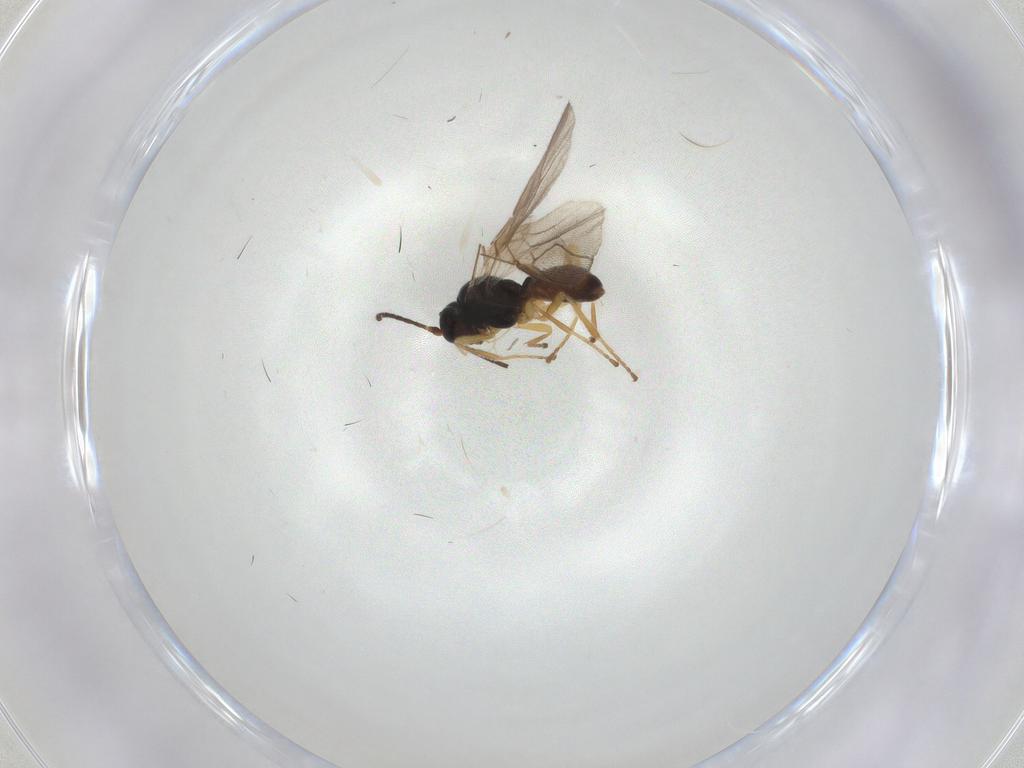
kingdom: Animalia
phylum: Arthropoda
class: Insecta
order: Hymenoptera
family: Braconidae
